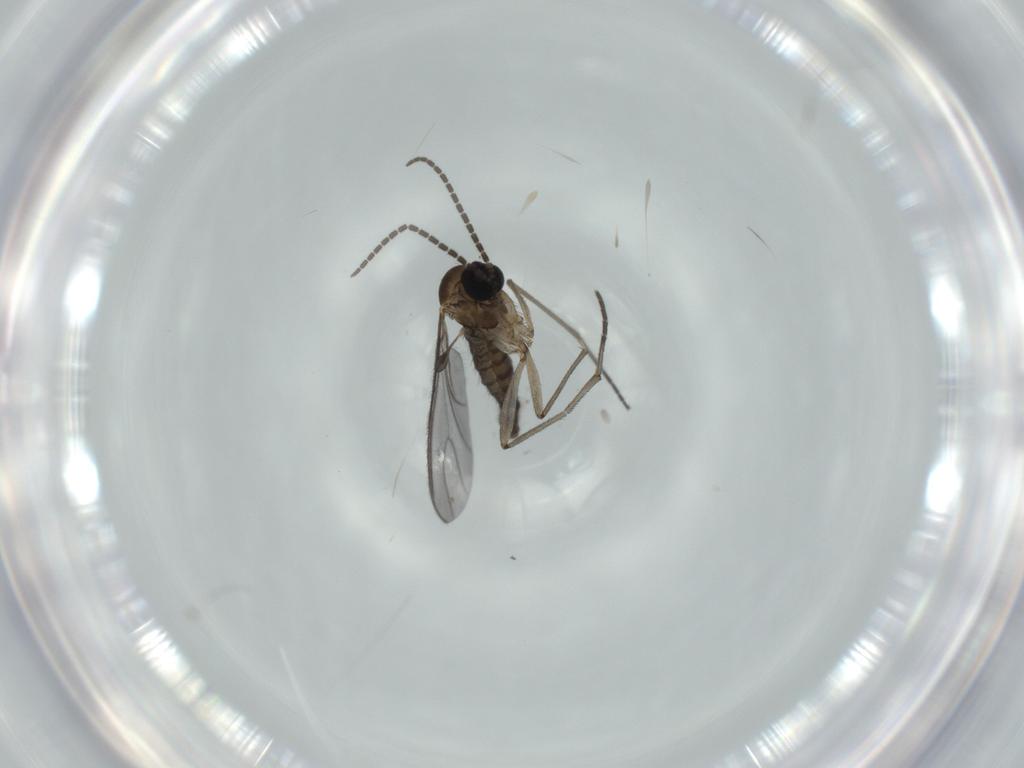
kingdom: Animalia
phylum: Arthropoda
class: Insecta
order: Diptera
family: Sciaridae
